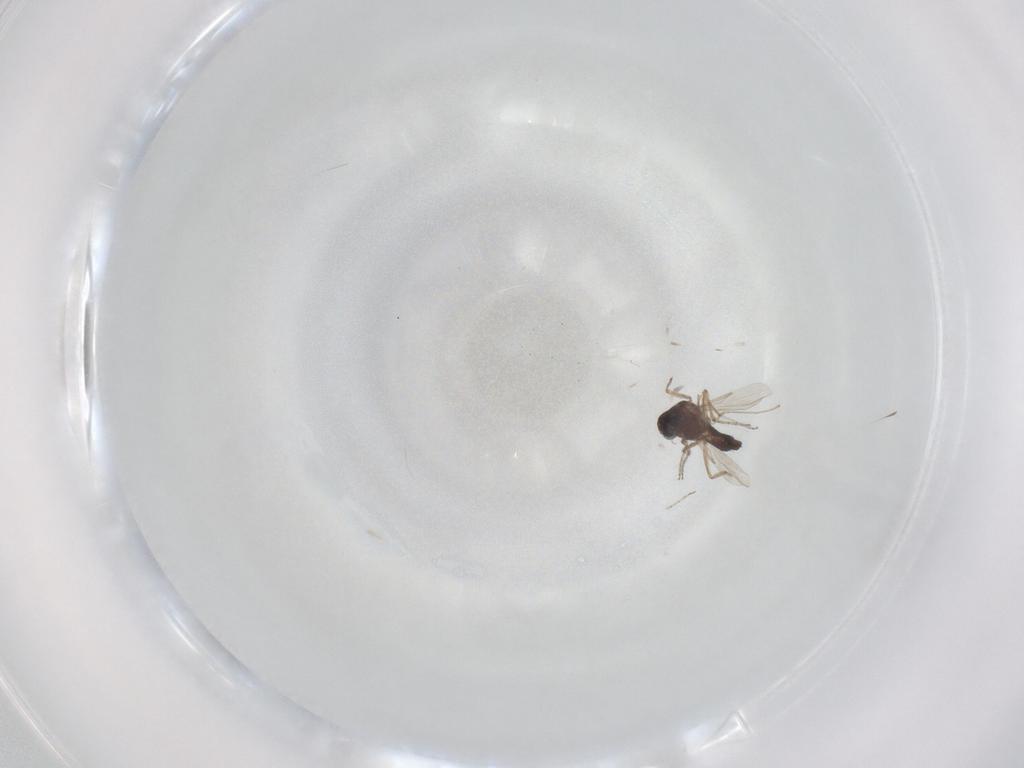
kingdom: Animalia
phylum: Arthropoda
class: Insecta
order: Diptera
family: Ceratopogonidae
